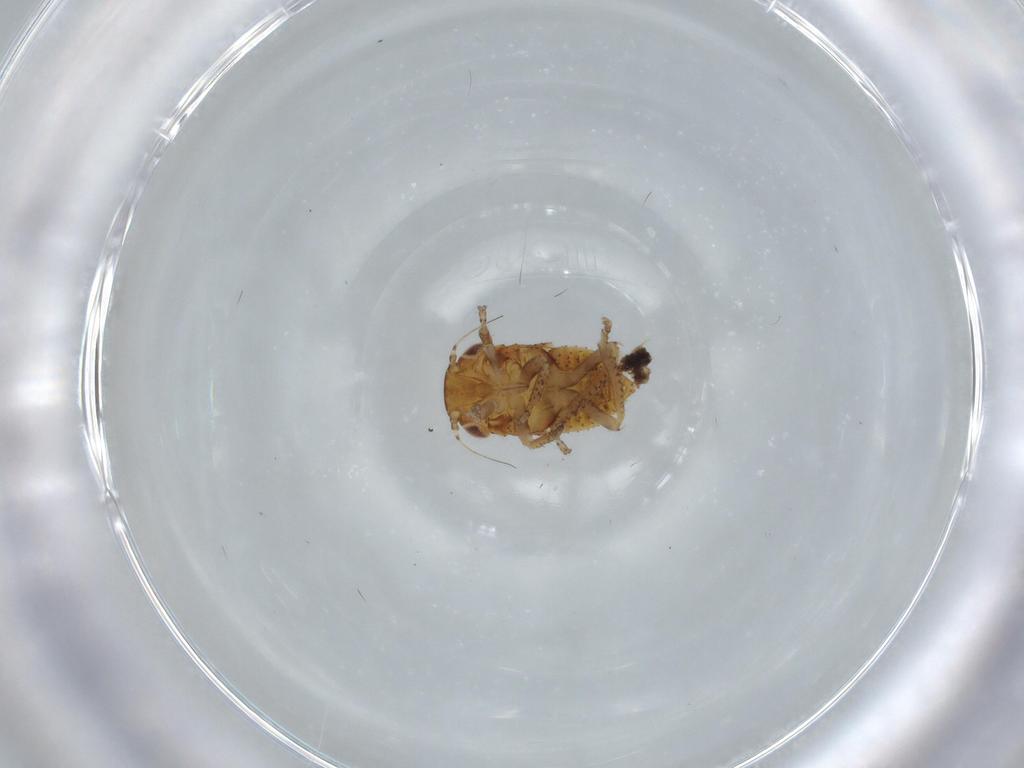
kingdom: Animalia
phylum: Arthropoda
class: Insecta
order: Hemiptera
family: Cicadellidae
